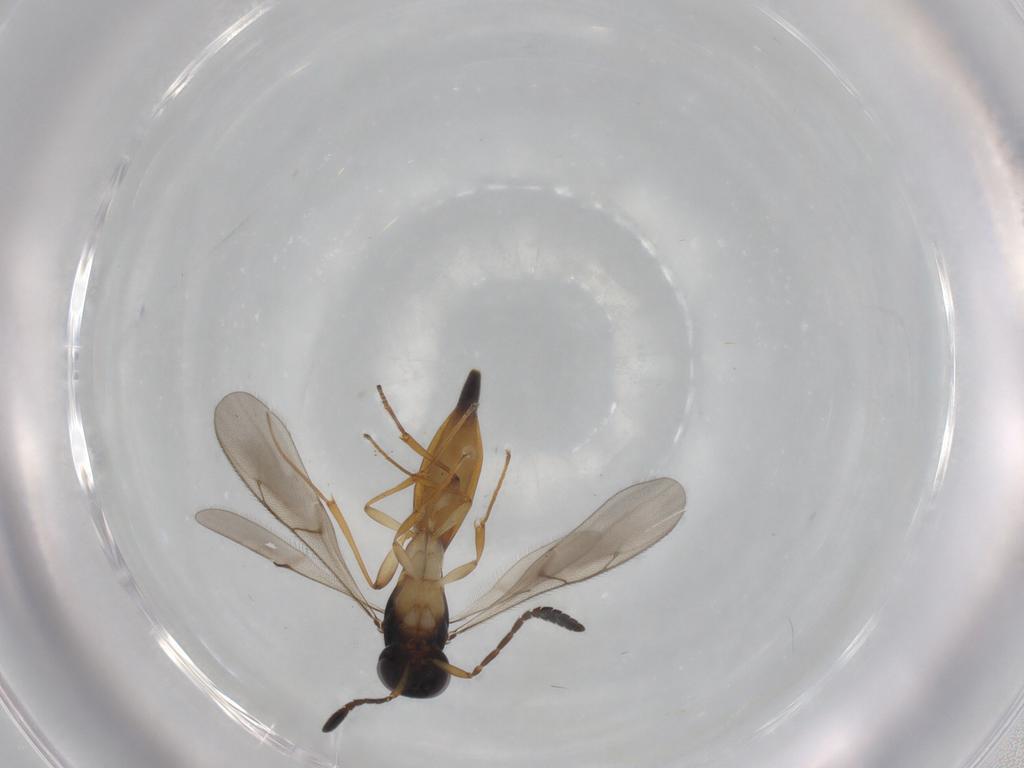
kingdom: Animalia
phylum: Arthropoda
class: Insecta
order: Hymenoptera
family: Scelionidae
